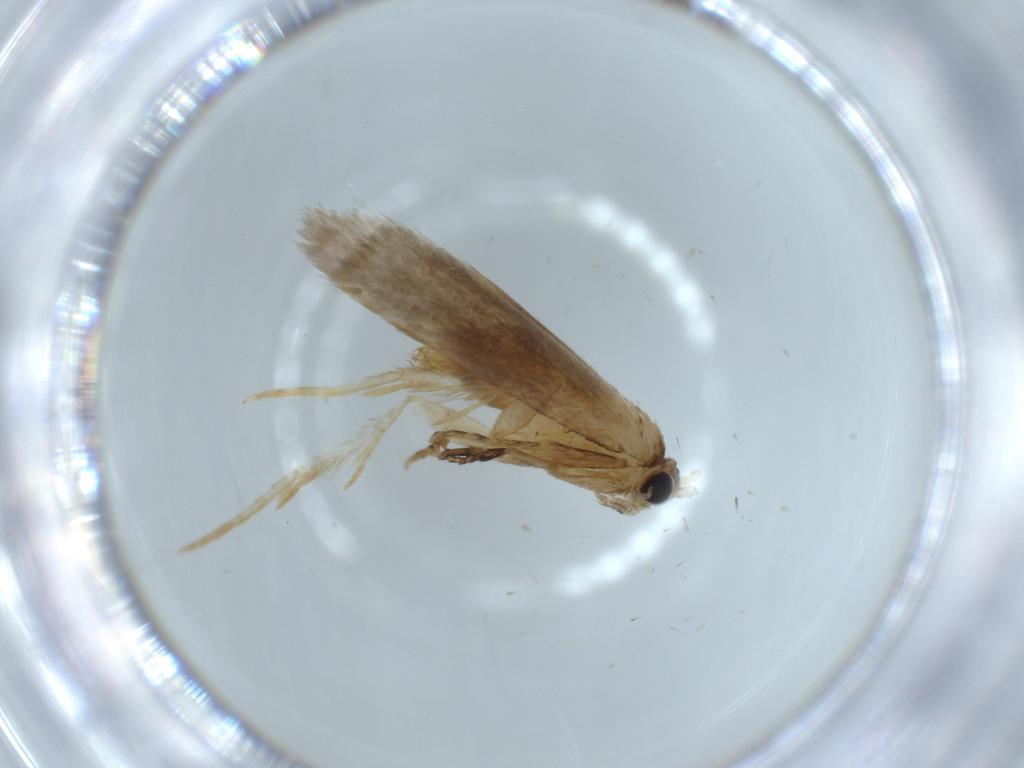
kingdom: Animalia
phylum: Arthropoda
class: Insecta
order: Lepidoptera
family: Tineidae
